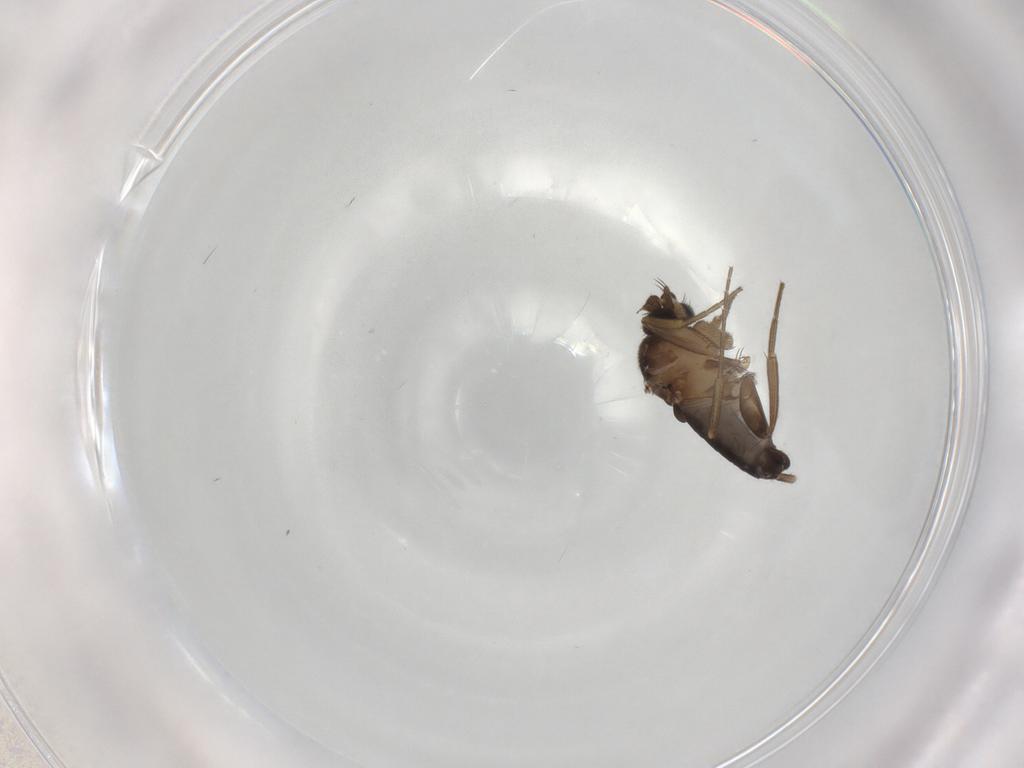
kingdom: Animalia
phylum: Arthropoda
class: Insecta
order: Diptera
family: Phoridae
